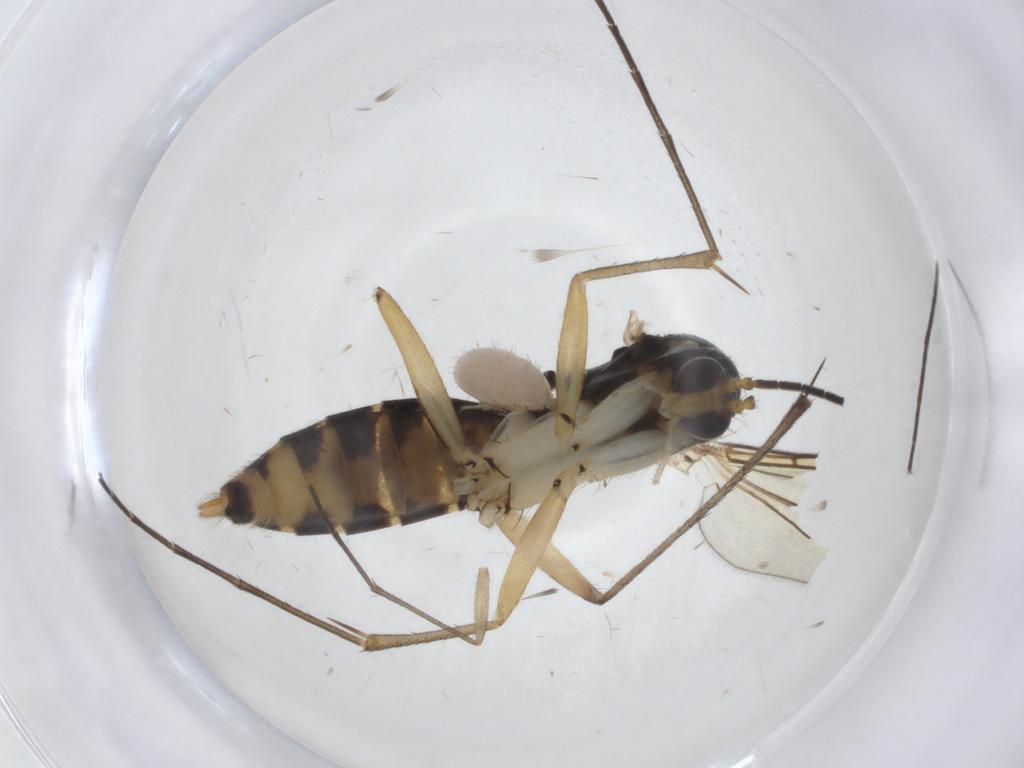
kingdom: Animalia
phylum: Arthropoda
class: Insecta
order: Diptera
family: Mycetophilidae
